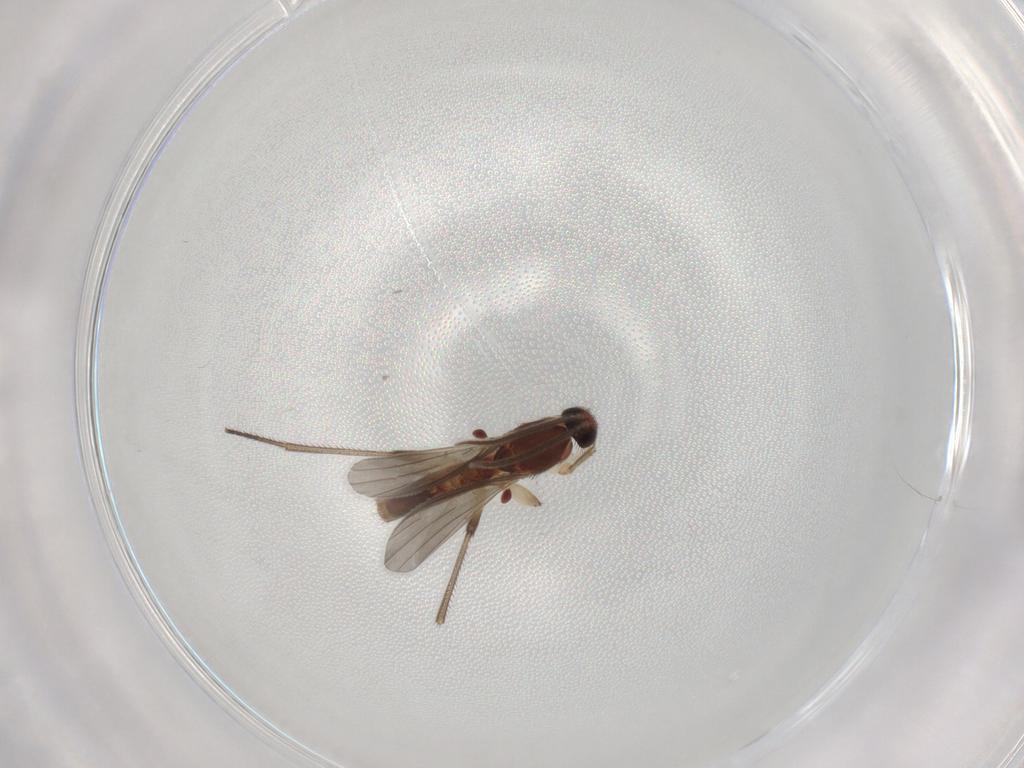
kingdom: Animalia
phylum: Arthropoda
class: Insecta
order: Diptera
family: Mycetophilidae
